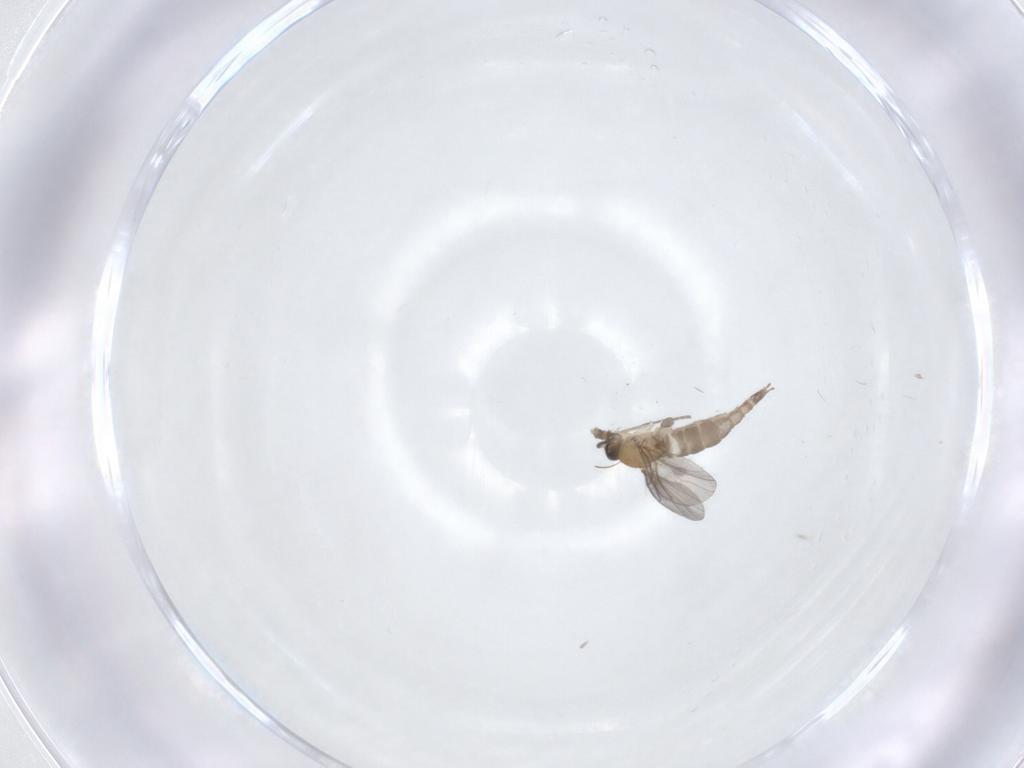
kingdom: Animalia
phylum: Arthropoda
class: Insecta
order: Diptera
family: Sciaridae
